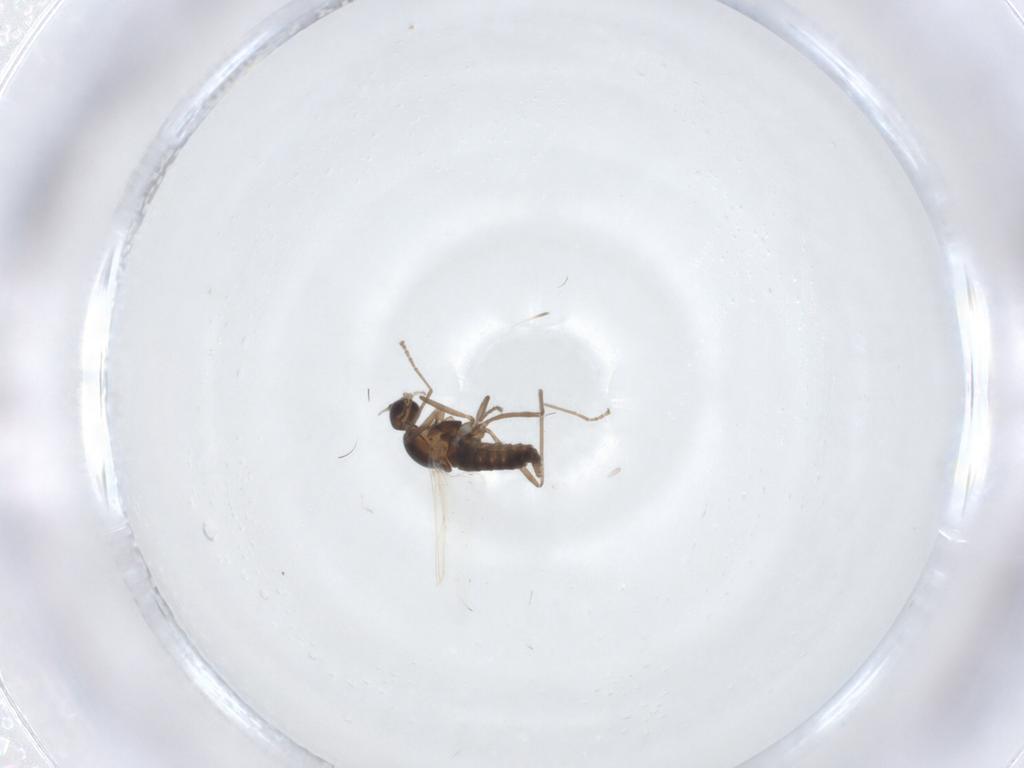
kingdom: Animalia
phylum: Arthropoda
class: Insecta
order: Diptera
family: Cecidomyiidae
